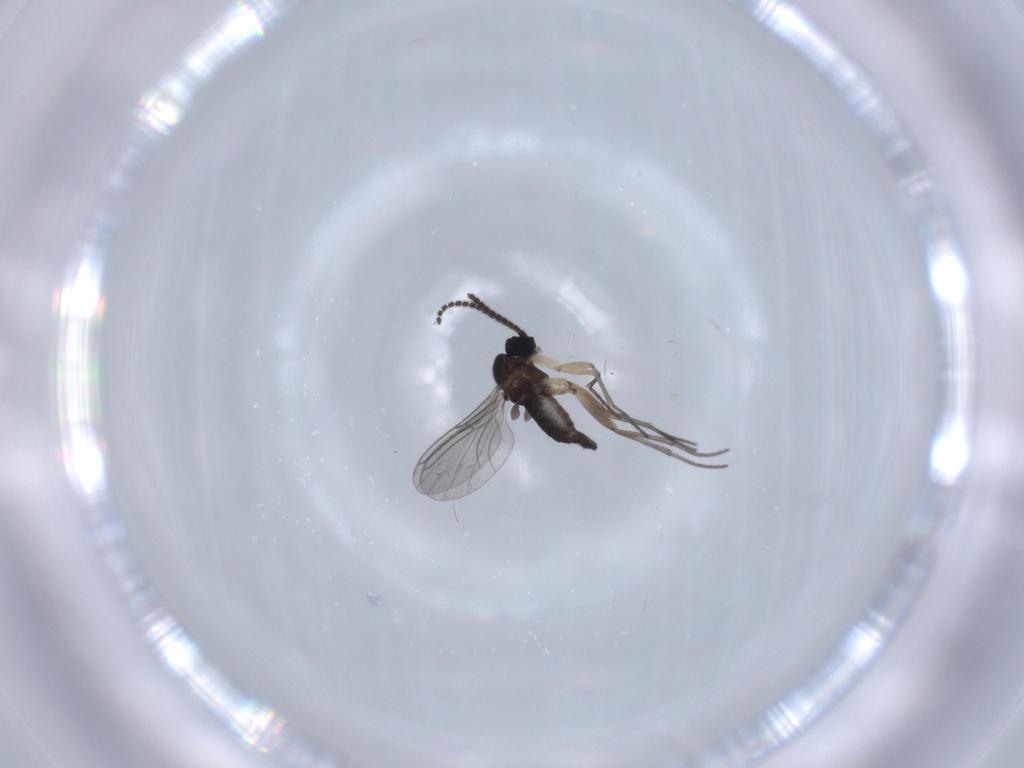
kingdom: Animalia
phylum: Arthropoda
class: Insecta
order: Diptera
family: Sciaridae
